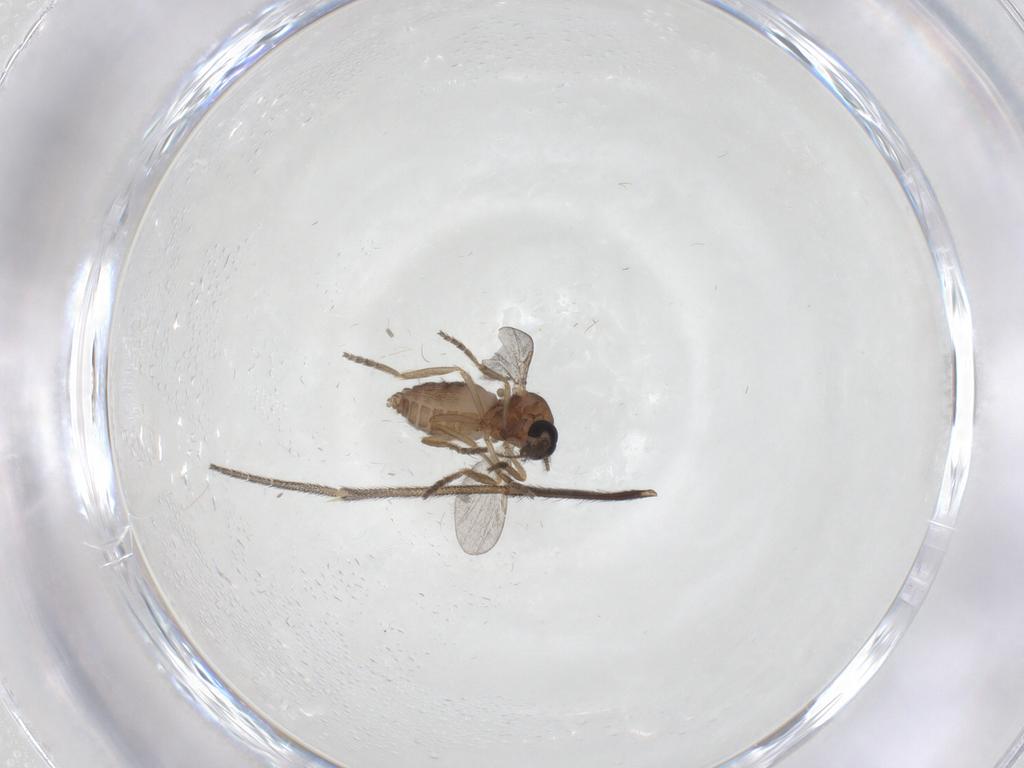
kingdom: Animalia
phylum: Arthropoda
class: Insecta
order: Diptera
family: Ceratopogonidae
